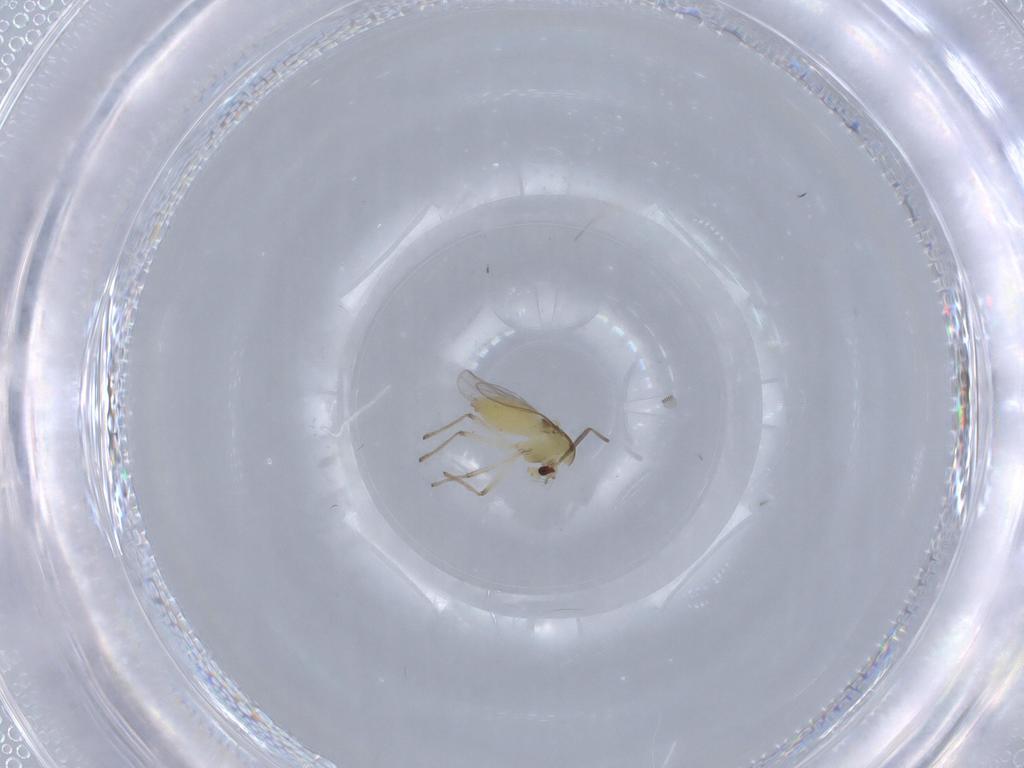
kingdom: Animalia
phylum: Arthropoda
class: Insecta
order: Diptera
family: Chironomidae
